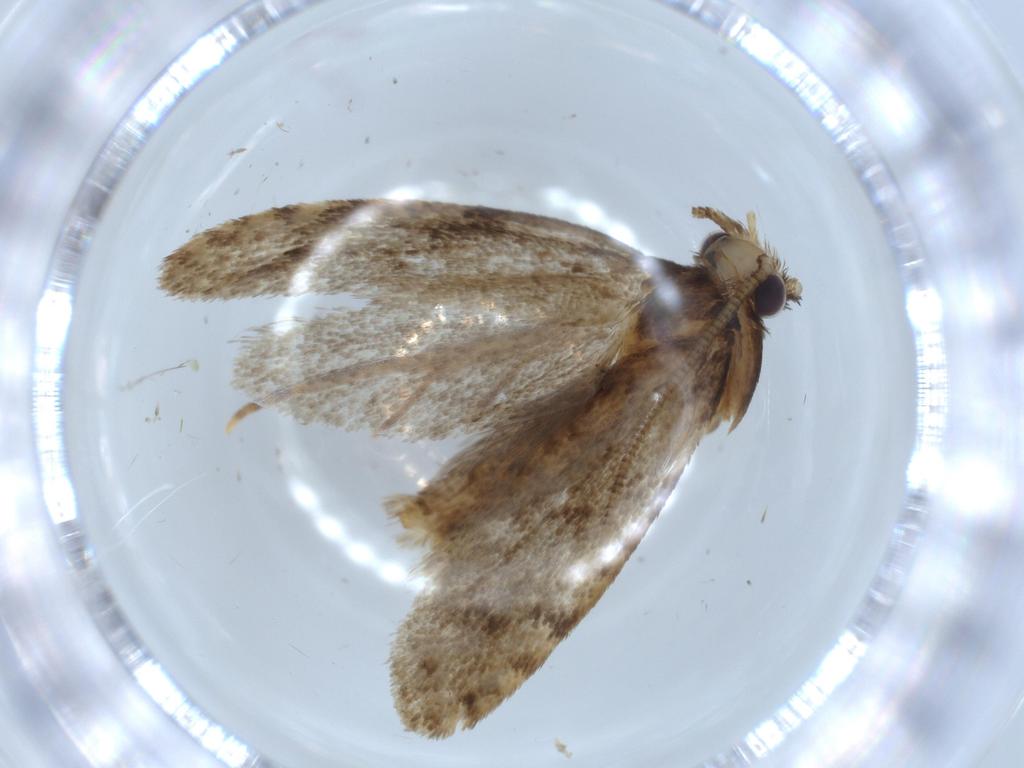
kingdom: Animalia
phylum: Arthropoda
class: Insecta
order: Lepidoptera
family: Tineidae
